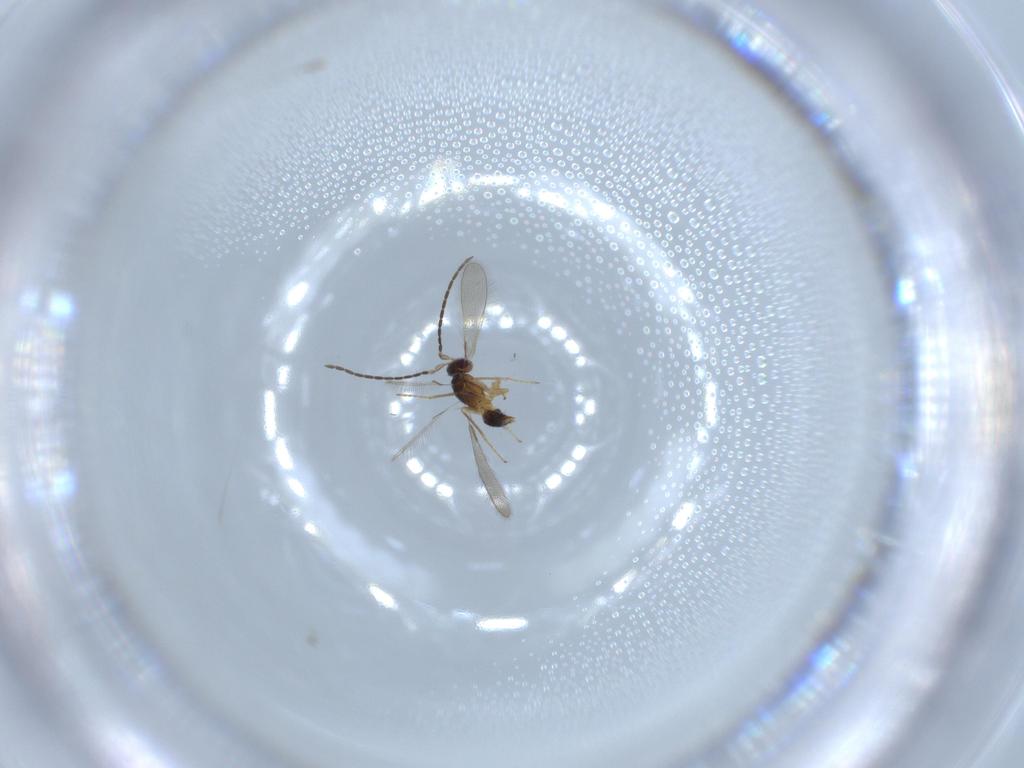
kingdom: Animalia
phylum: Arthropoda
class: Insecta
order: Hymenoptera
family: Mymaridae
